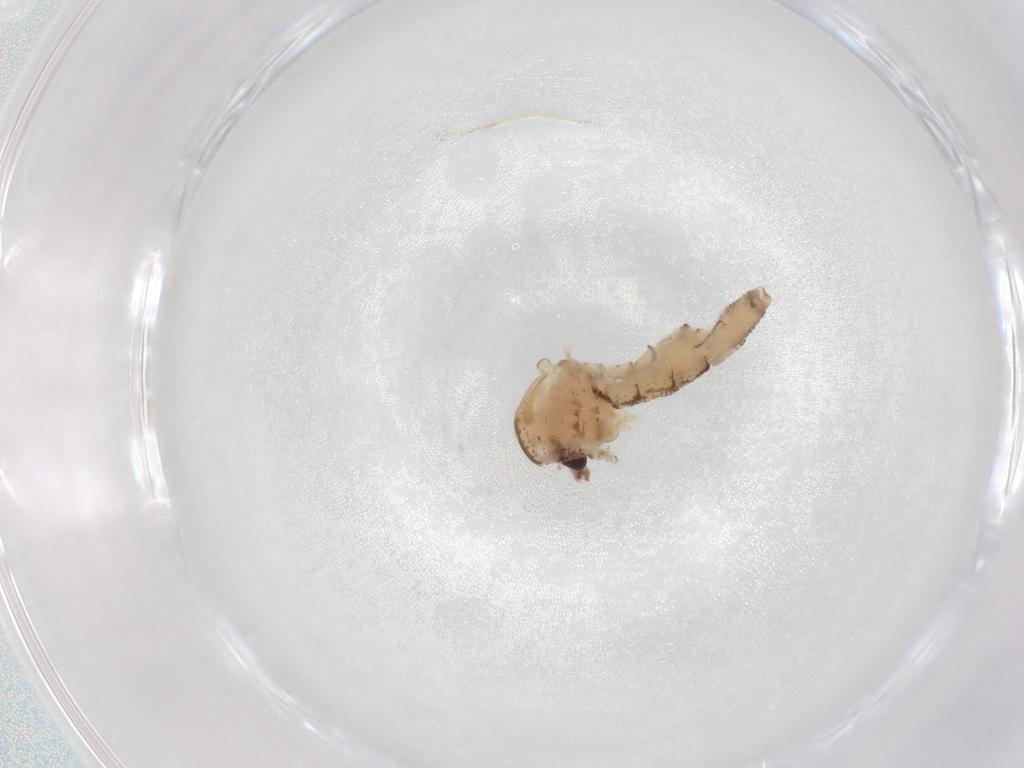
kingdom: Animalia
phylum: Arthropoda
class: Insecta
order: Diptera
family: Chaoboridae
